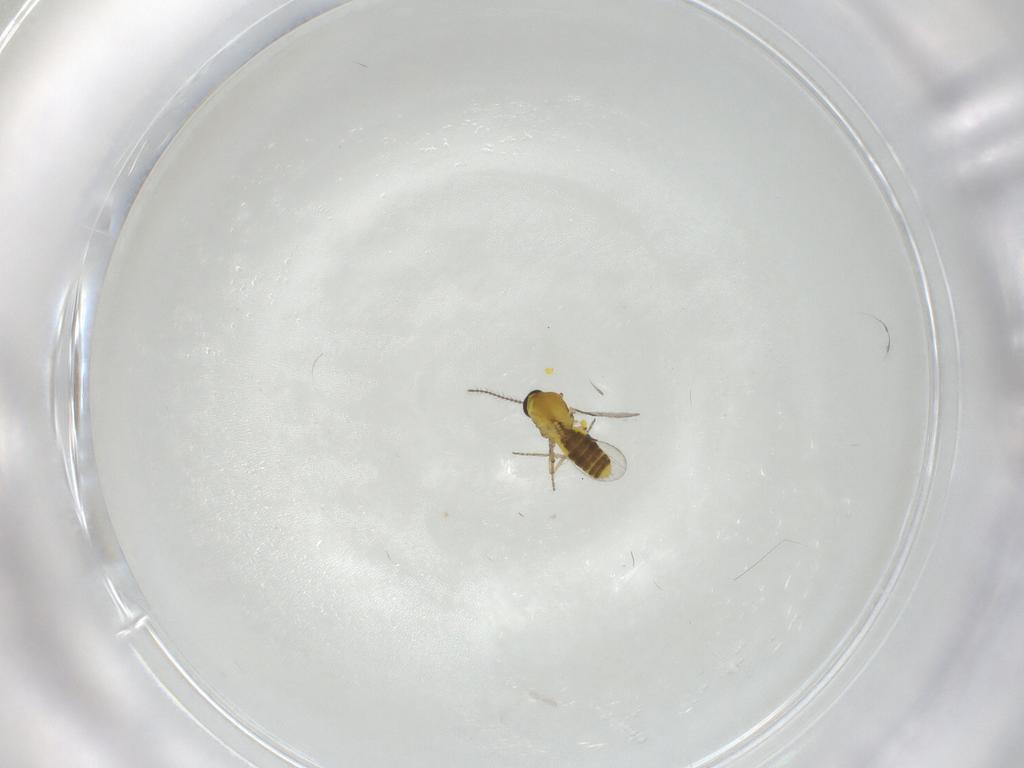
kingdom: Animalia
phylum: Arthropoda
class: Insecta
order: Diptera
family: Ceratopogonidae
